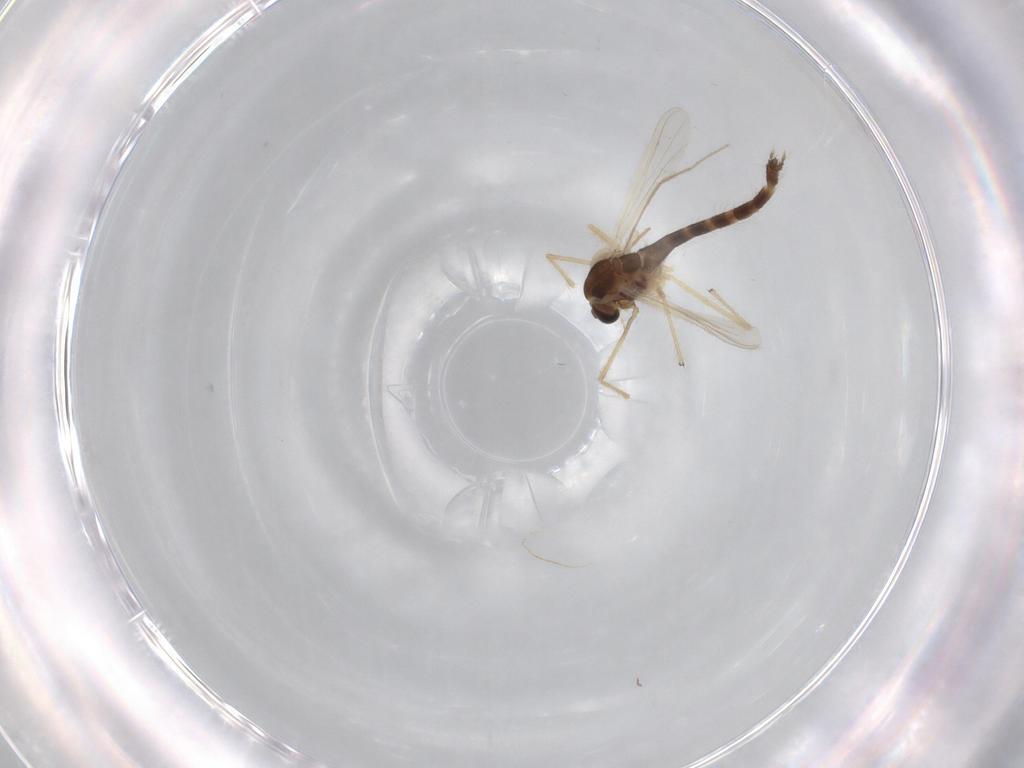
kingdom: Animalia
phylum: Arthropoda
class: Insecta
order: Diptera
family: Chironomidae
